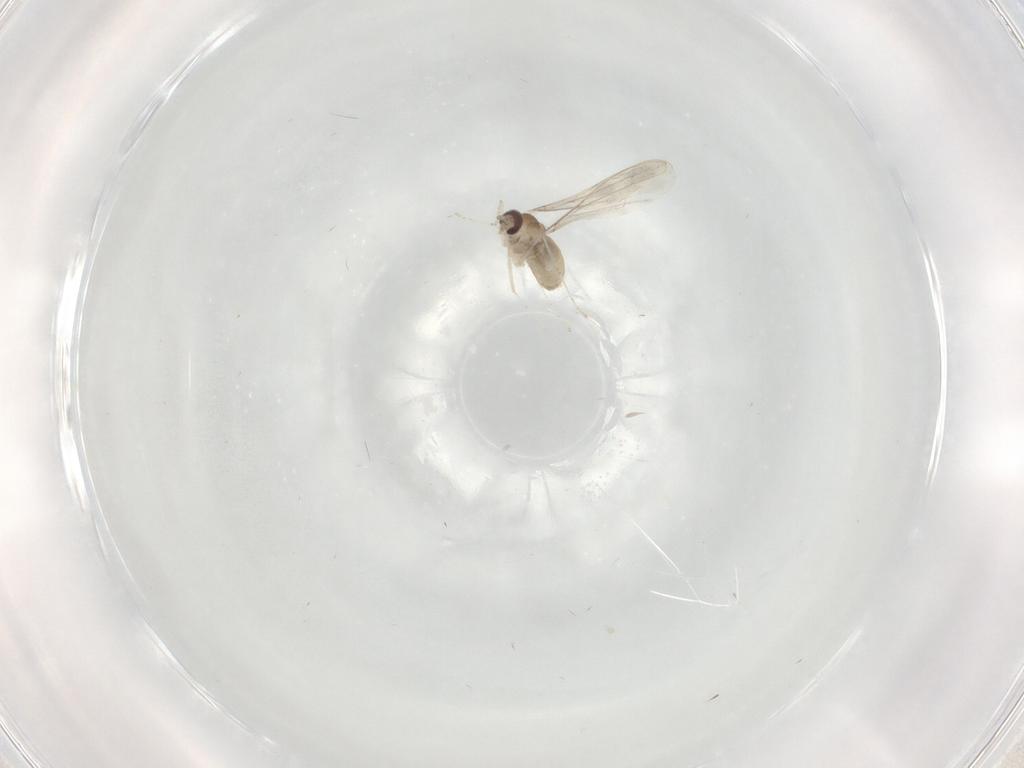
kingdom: Animalia
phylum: Arthropoda
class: Insecta
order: Diptera
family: Cecidomyiidae
